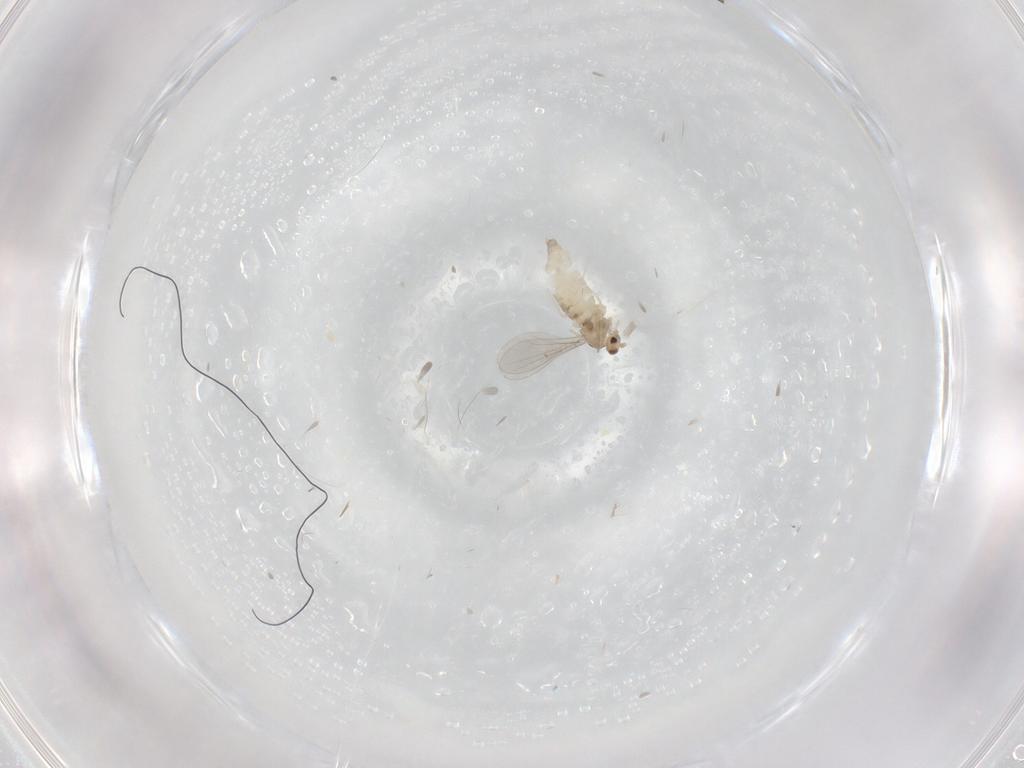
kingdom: Animalia
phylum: Arthropoda
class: Insecta
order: Diptera
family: Cecidomyiidae
